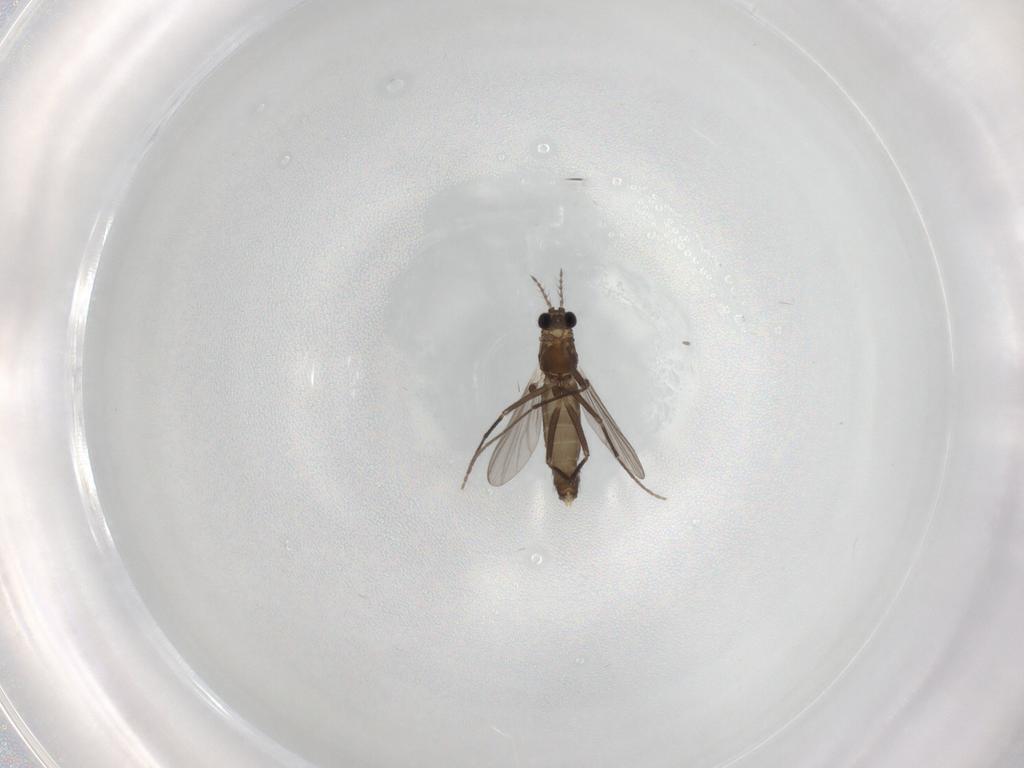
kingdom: Animalia
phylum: Arthropoda
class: Insecta
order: Diptera
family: Chironomidae
